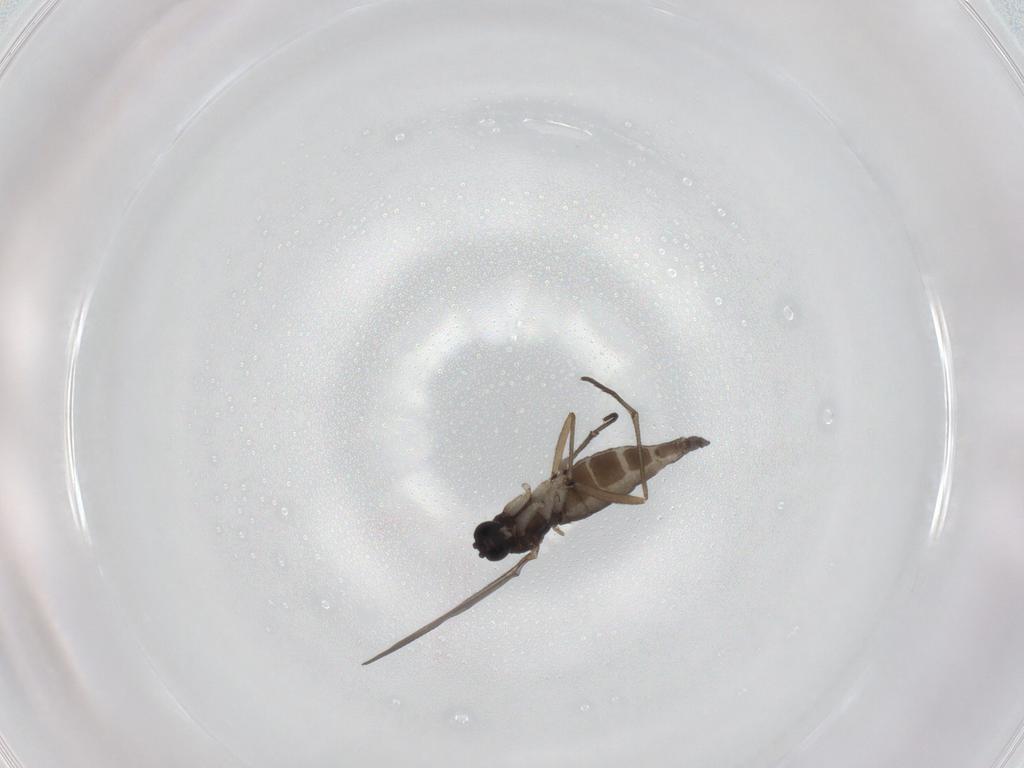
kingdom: Animalia
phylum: Arthropoda
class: Insecta
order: Diptera
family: Sciaridae
